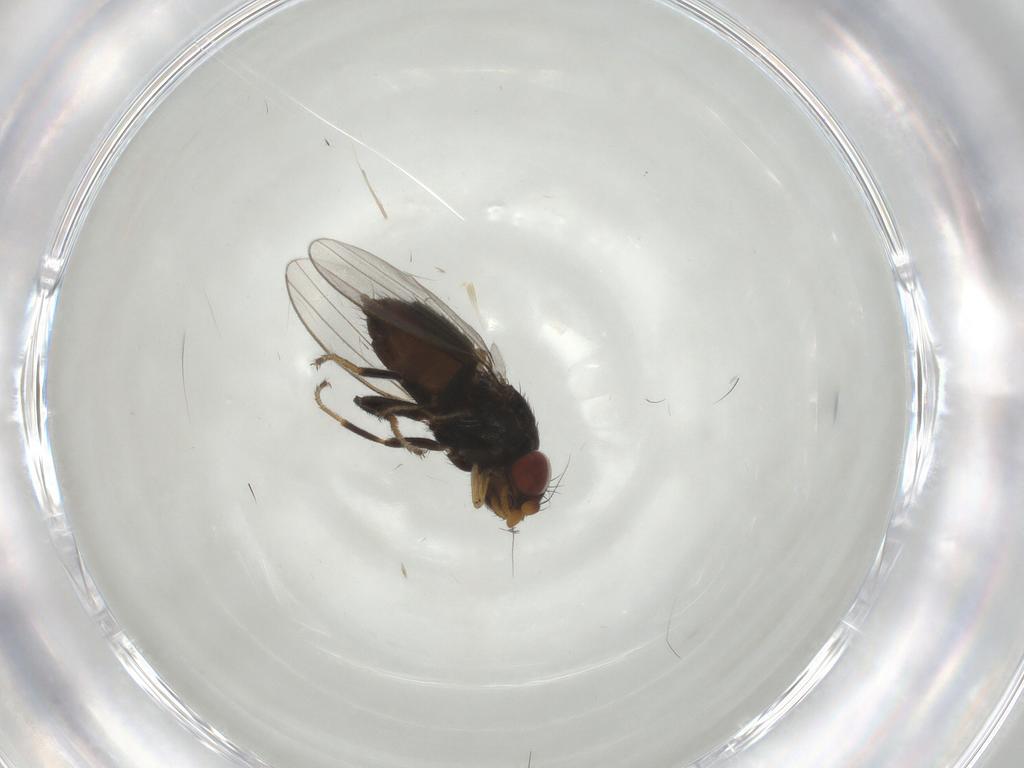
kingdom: Animalia
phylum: Arthropoda
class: Insecta
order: Diptera
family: Milichiidae
